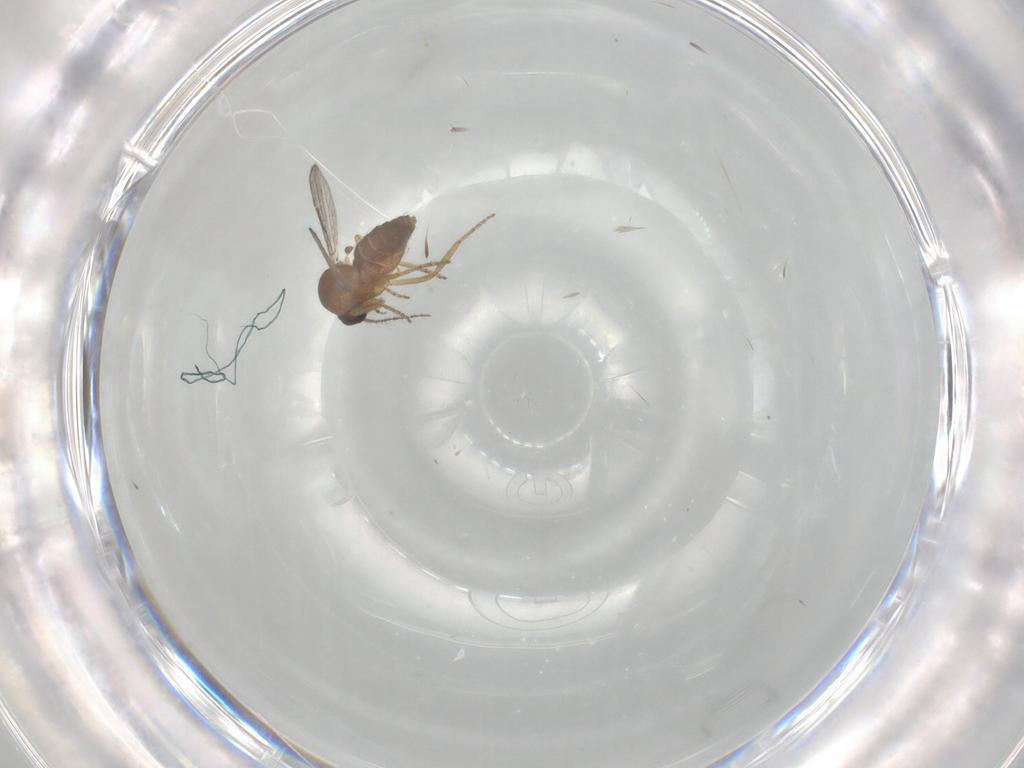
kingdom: Animalia
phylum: Arthropoda
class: Insecta
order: Diptera
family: Ceratopogonidae
